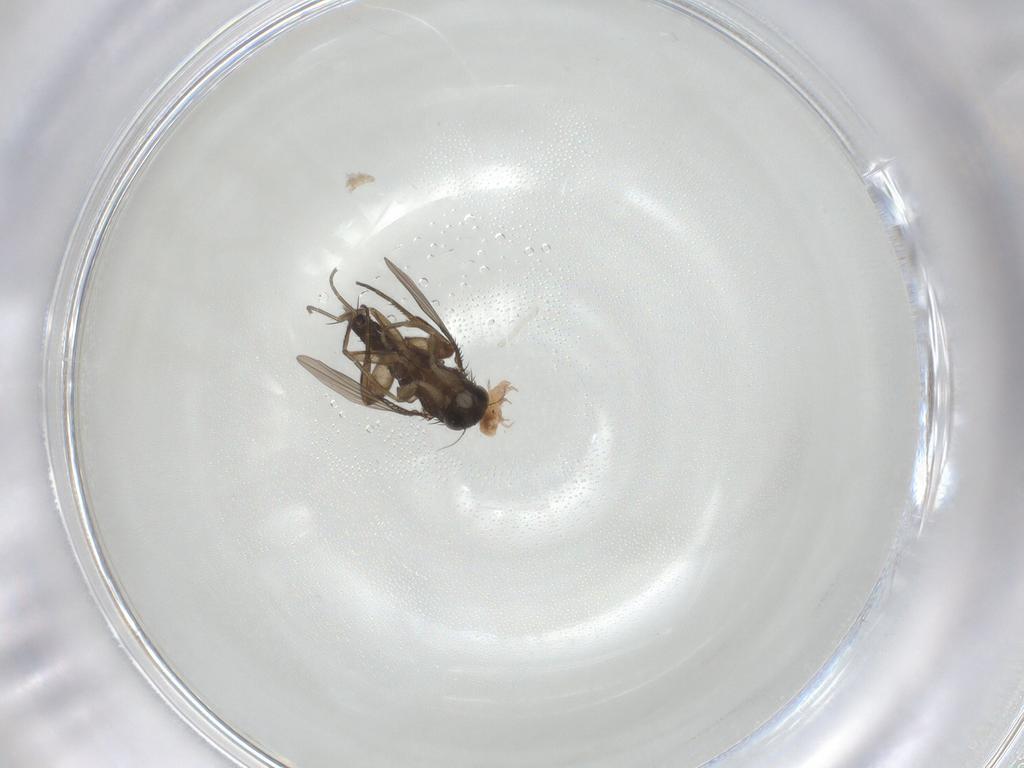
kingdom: Animalia
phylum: Arthropoda
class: Insecta
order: Diptera
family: Phoridae
